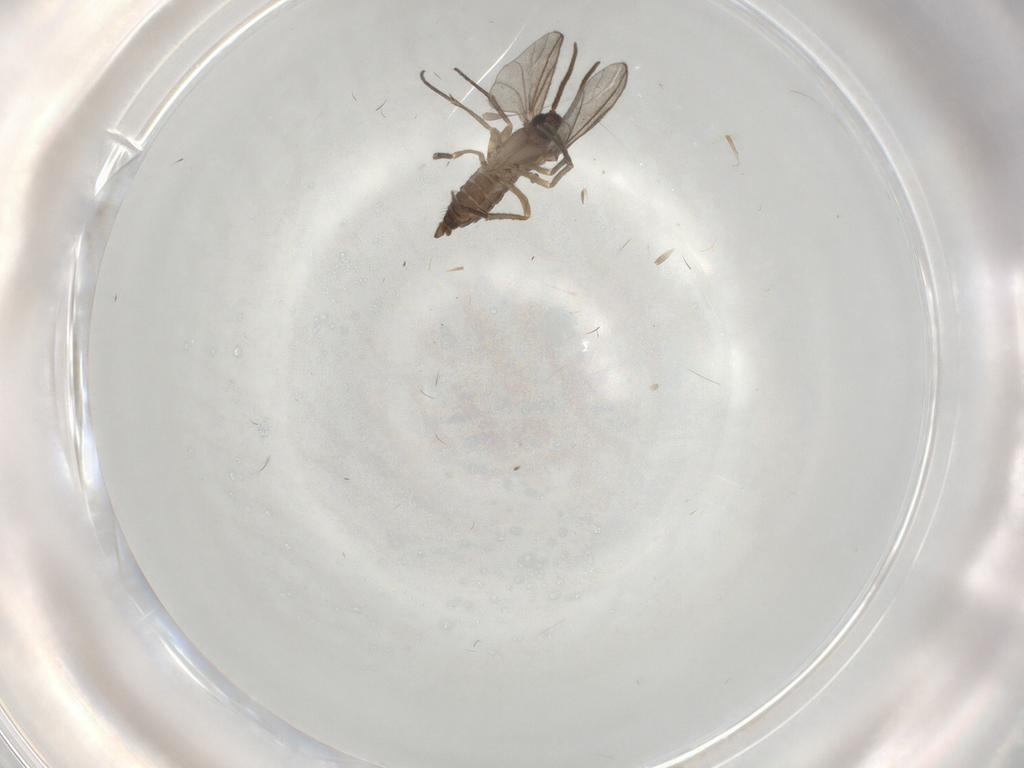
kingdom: Animalia
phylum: Arthropoda
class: Insecta
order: Diptera
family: Sciaridae
